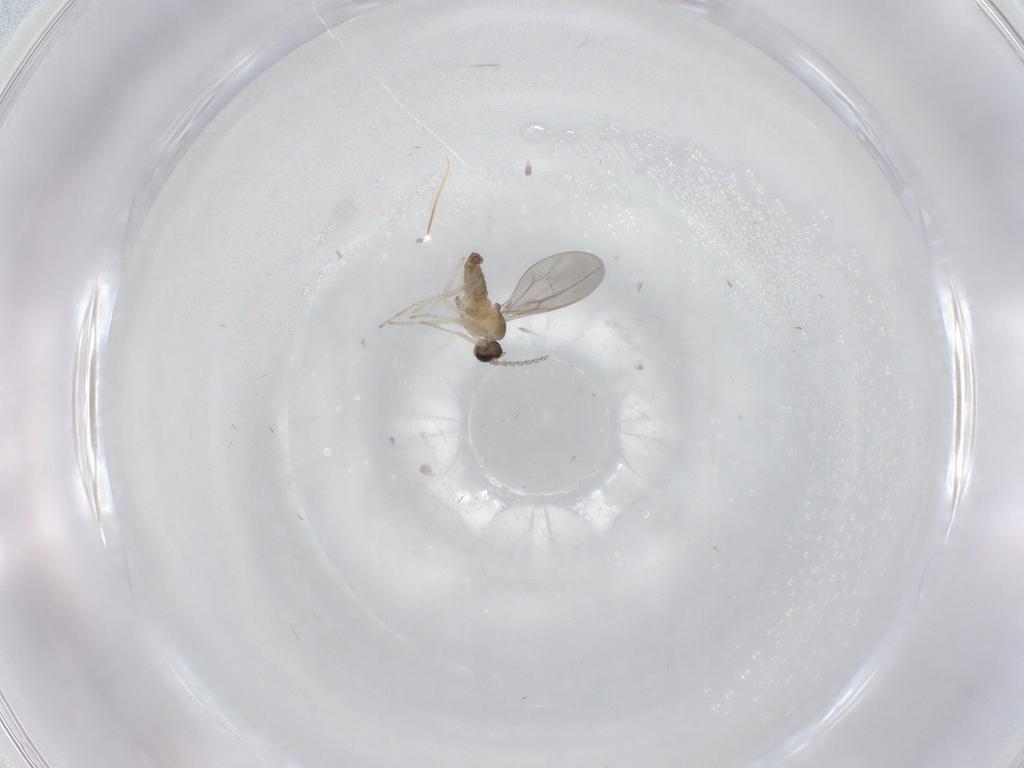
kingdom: Animalia
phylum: Arthropoda
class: Insecta
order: Diptera
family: Cecidomyiidae
